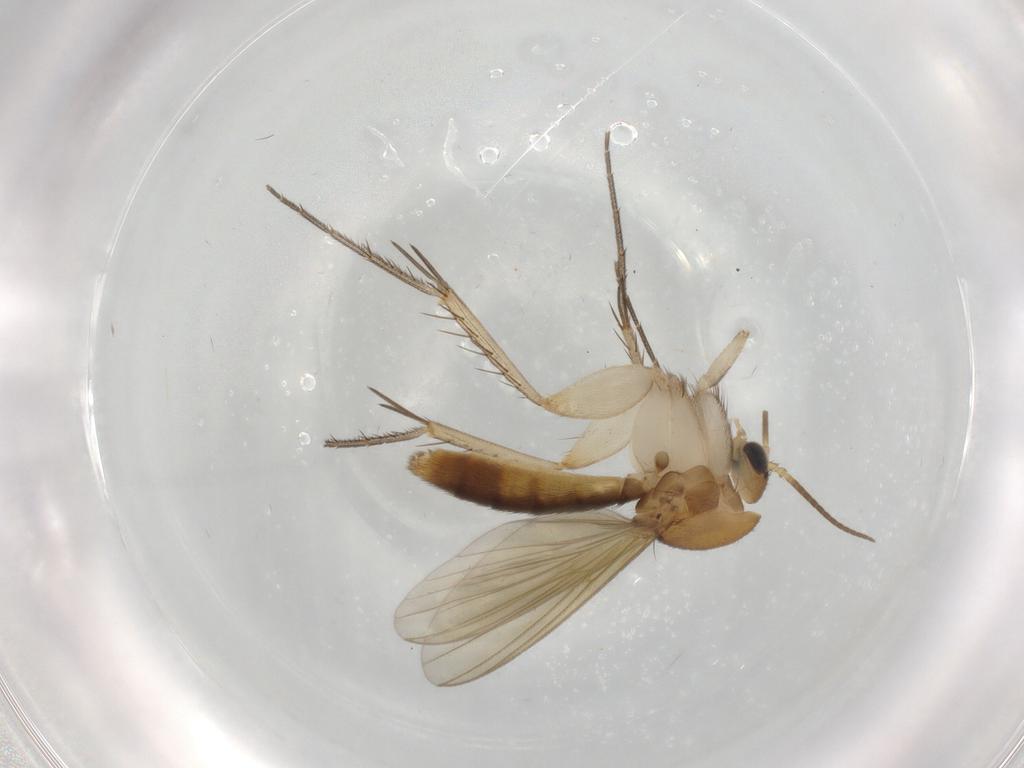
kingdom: Animalia
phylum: Arthropoda
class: Insecta
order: Diptera
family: Mycetophilidae
